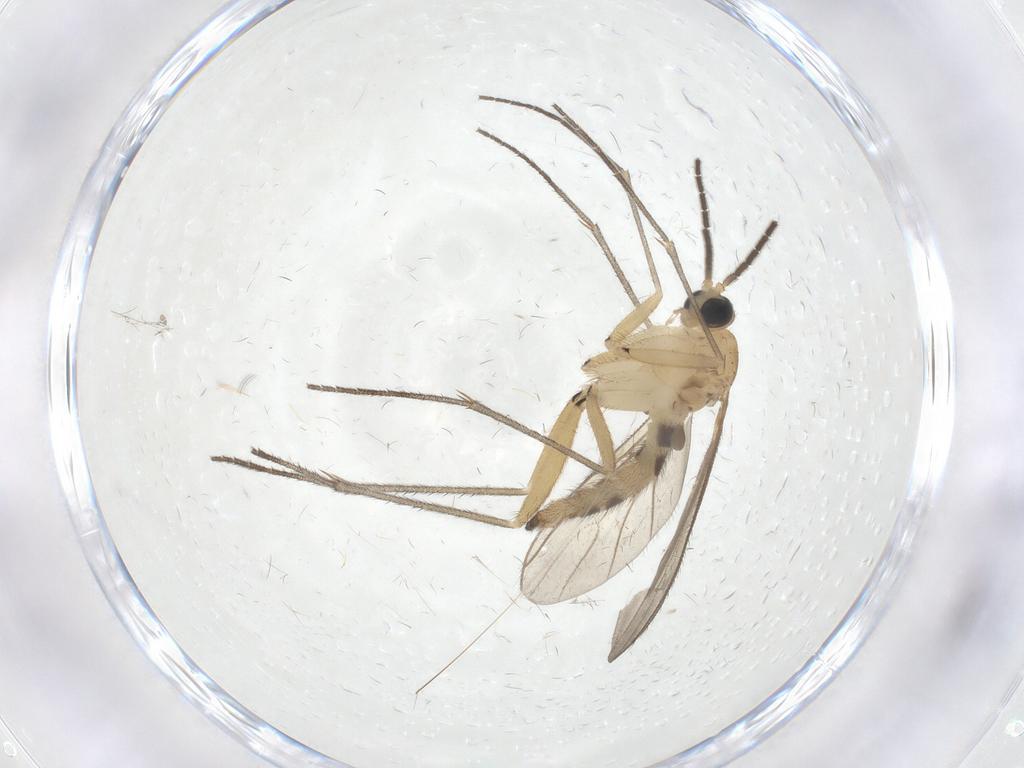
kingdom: Animalia
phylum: Arthropoda
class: Insecta
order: Diptera
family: Sciaridae
